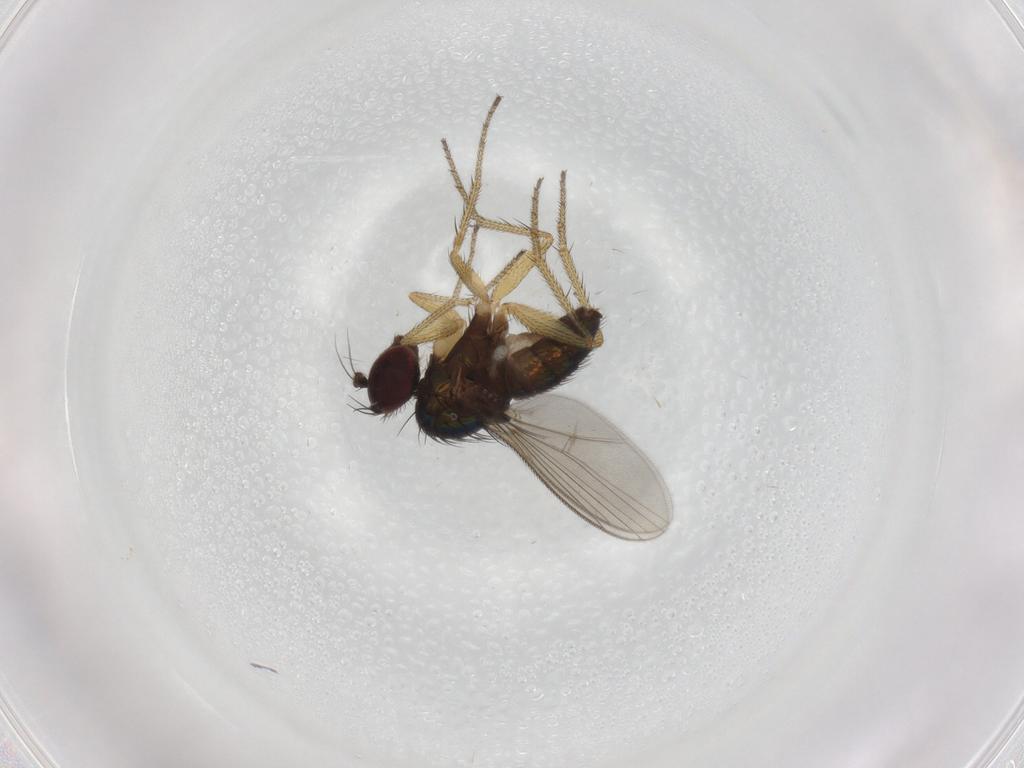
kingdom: Animalia
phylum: Arthropoda
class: Insecta
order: Diptera
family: Dolichopodidae
